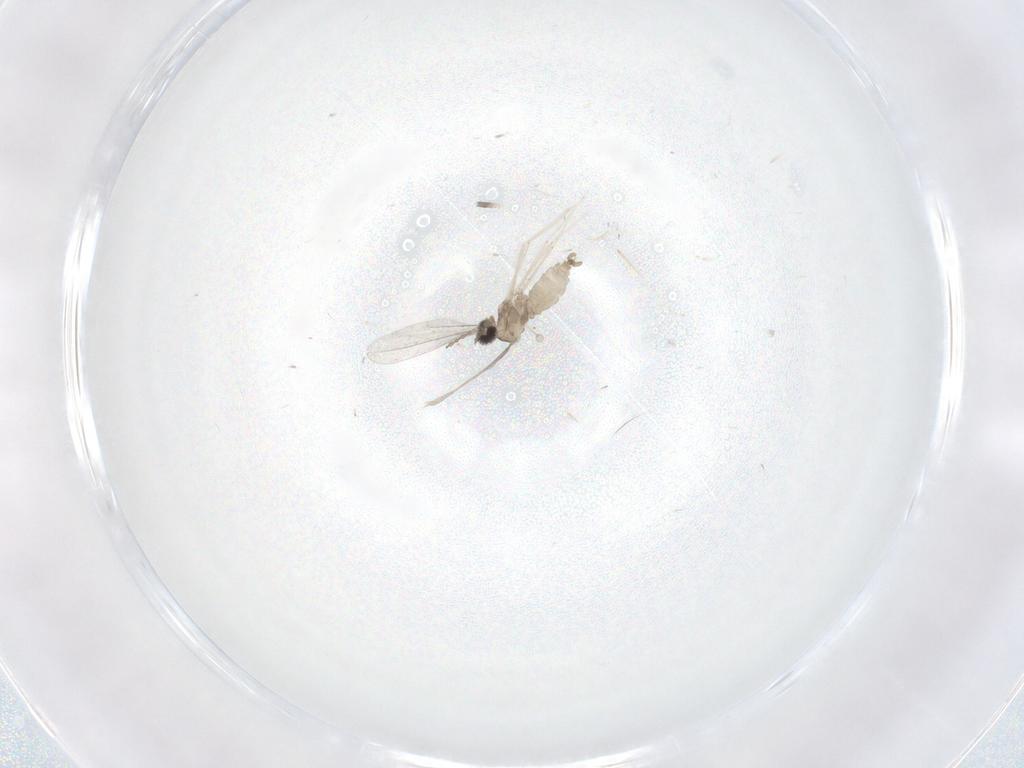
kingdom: Animalia
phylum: Arthropoda
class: Insecta
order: Diptera
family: Cecidomyiidae
